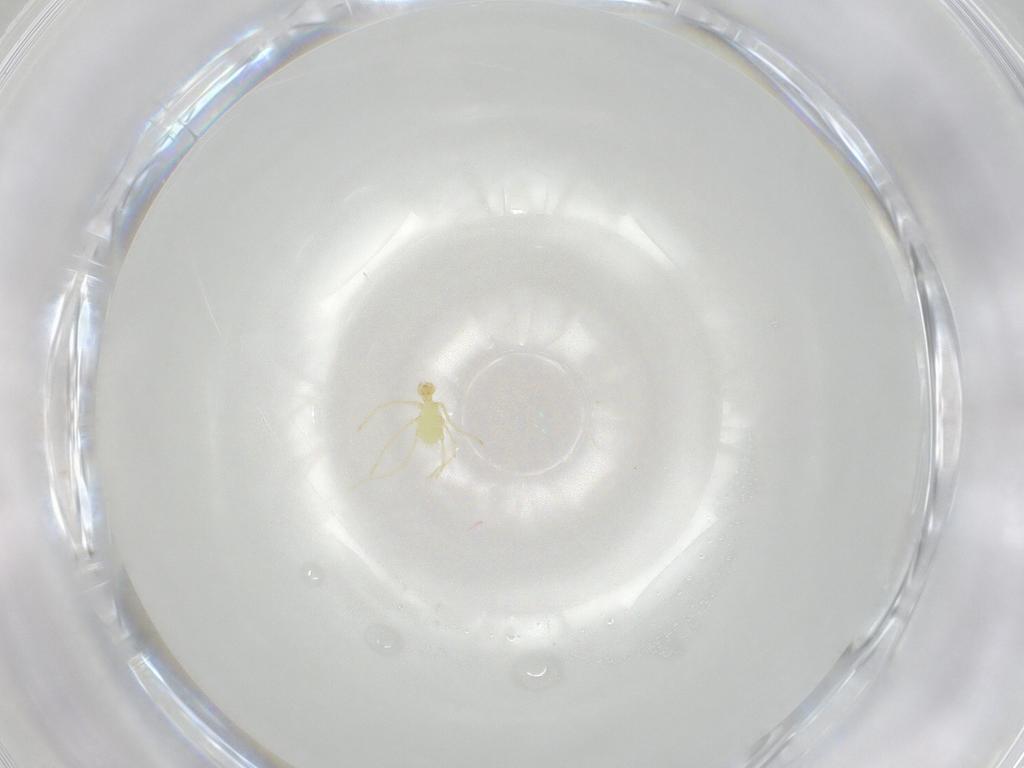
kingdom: Animalia
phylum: Arthropoda
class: Arachnida
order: Trombidiformes
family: Erythraeidae
